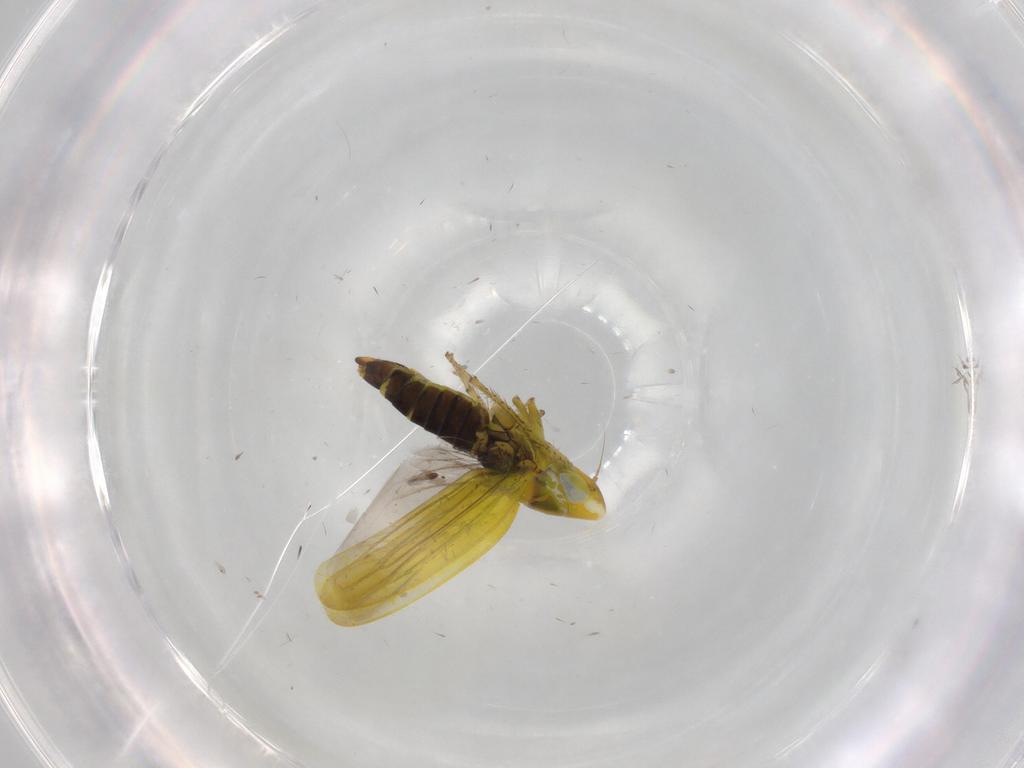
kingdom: Animalia
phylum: Arthropoda
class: Insecta
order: Hemiptera
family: Cicadellidae
